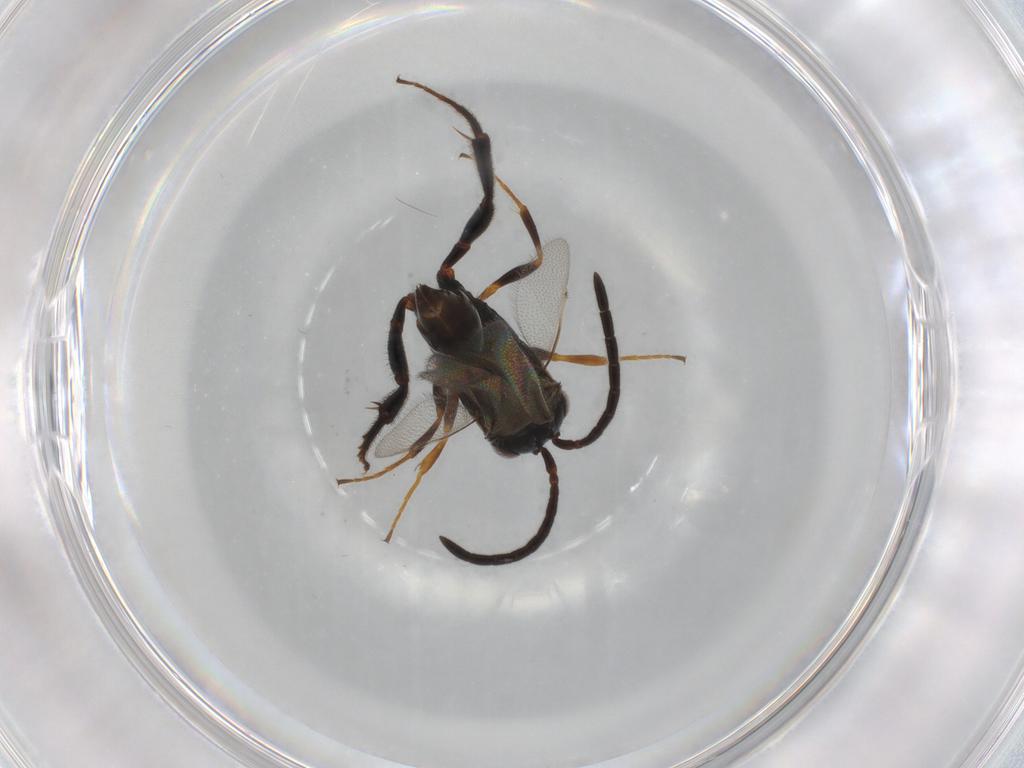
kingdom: Animalia
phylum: Arthropoda
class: Insecta
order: Hymenoptera
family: Evaniidae
